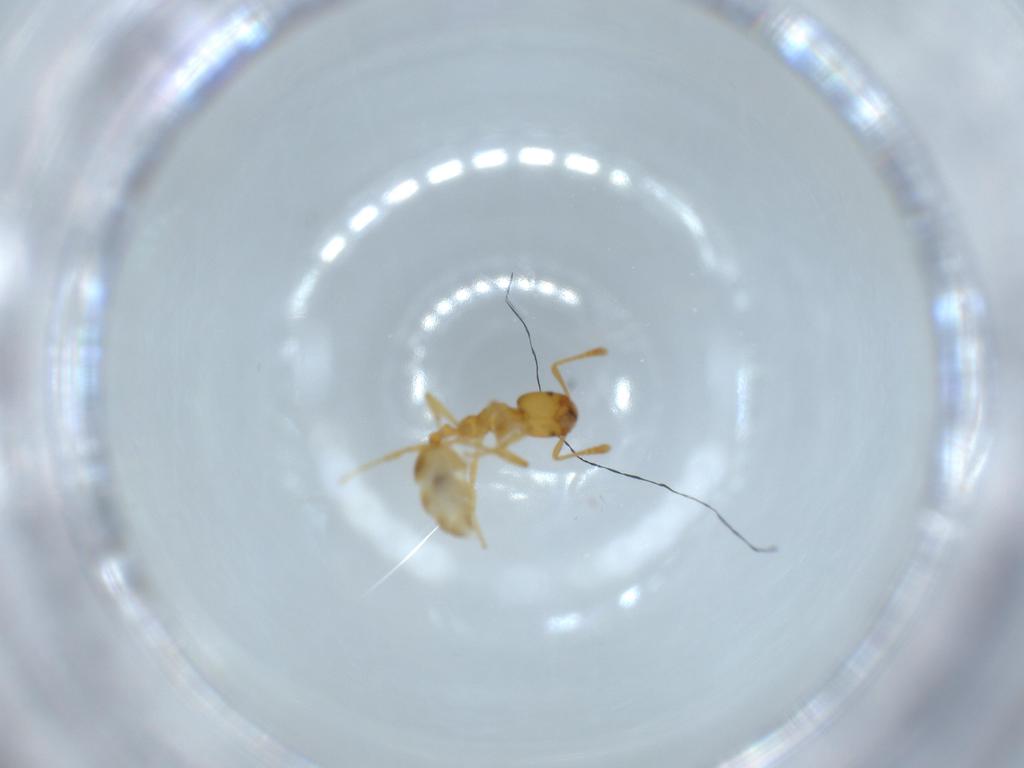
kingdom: Animalia
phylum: Arthropoda
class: Insecta
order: Hymenoptera
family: Formicidae
